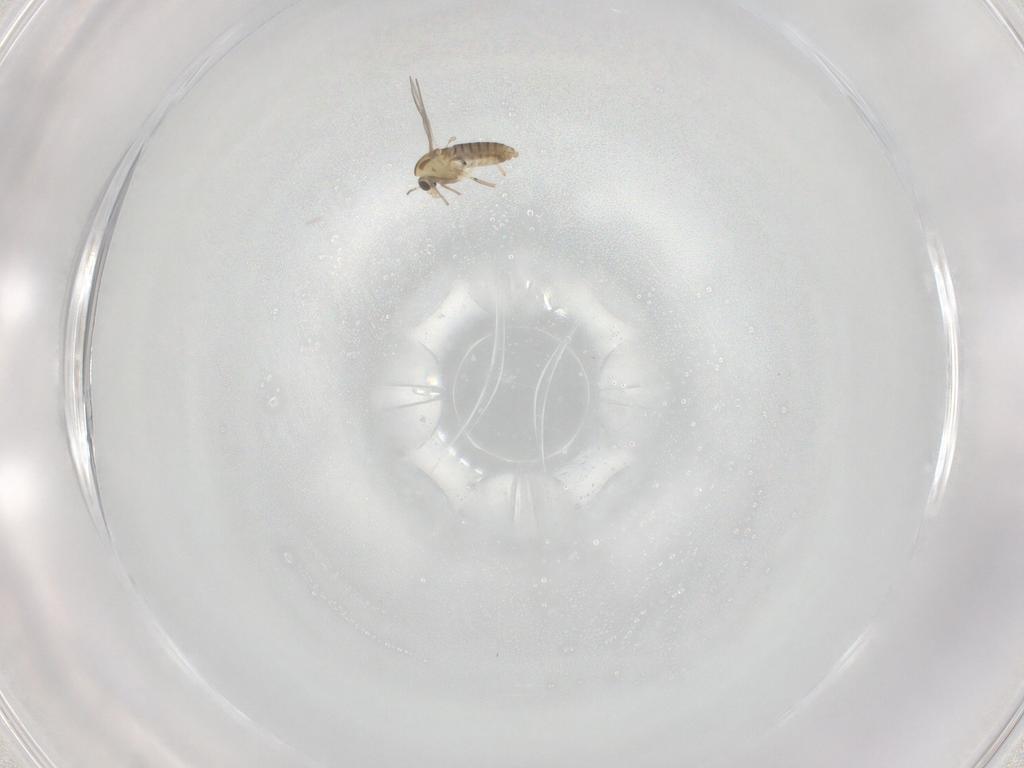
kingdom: Animalia
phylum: Arthropoda
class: Insecta
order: Diptera
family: Chironomidae
